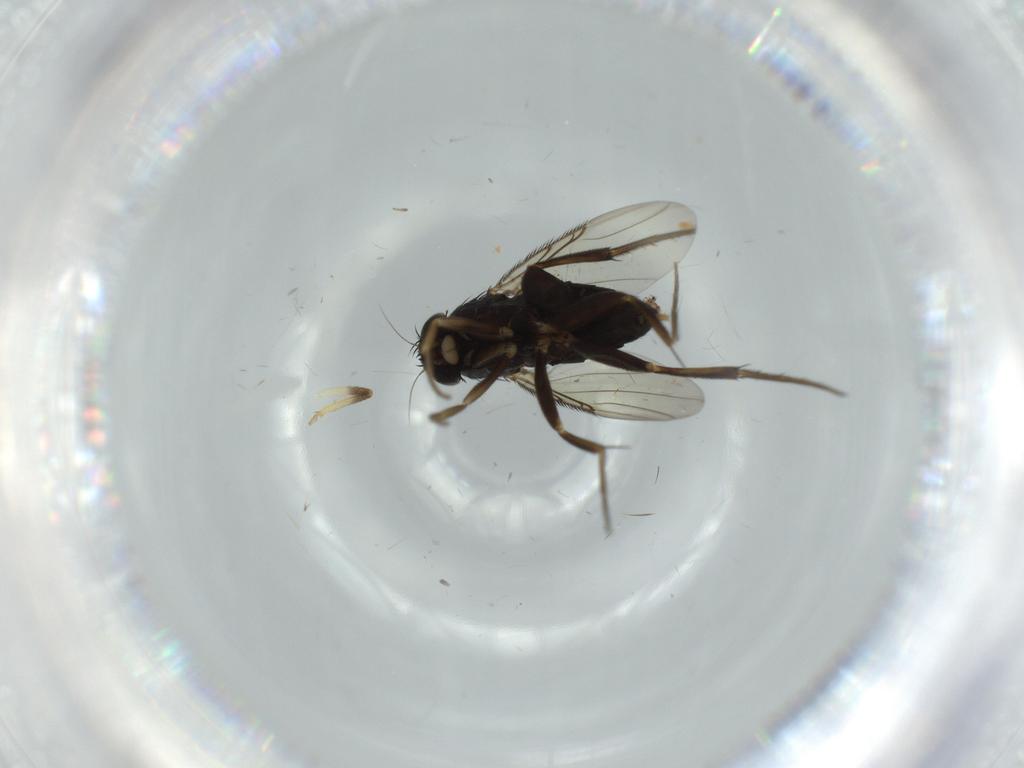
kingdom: Animalia
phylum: Arthropoda
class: Insecta
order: Diptera
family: Phoridae
